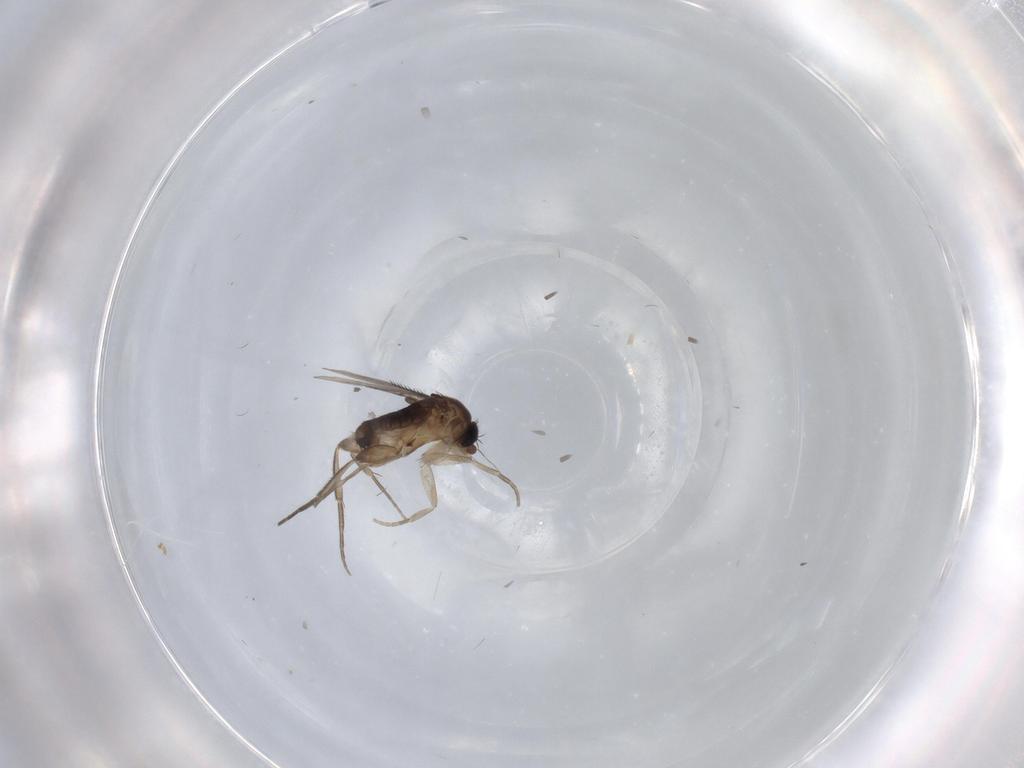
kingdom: Animalia
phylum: Arthropoda
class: Insecta
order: Diptera
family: Phoridae
